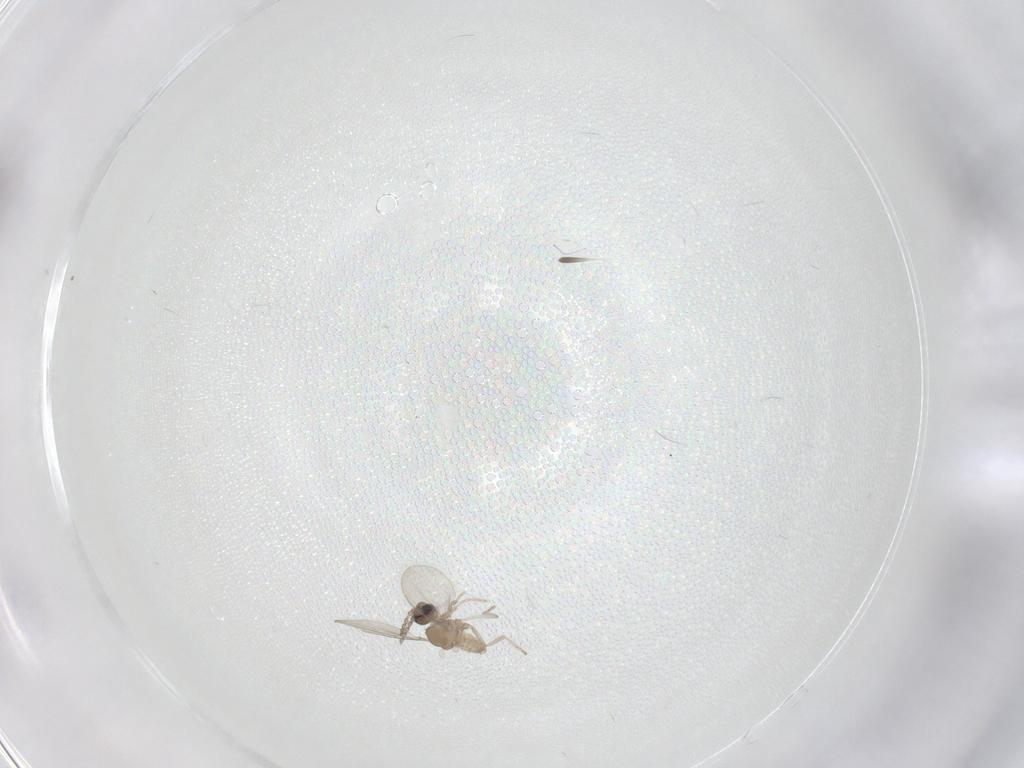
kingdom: Animalia
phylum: Arthropoda
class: Insecta
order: Diptera
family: Cecidomyiidae
